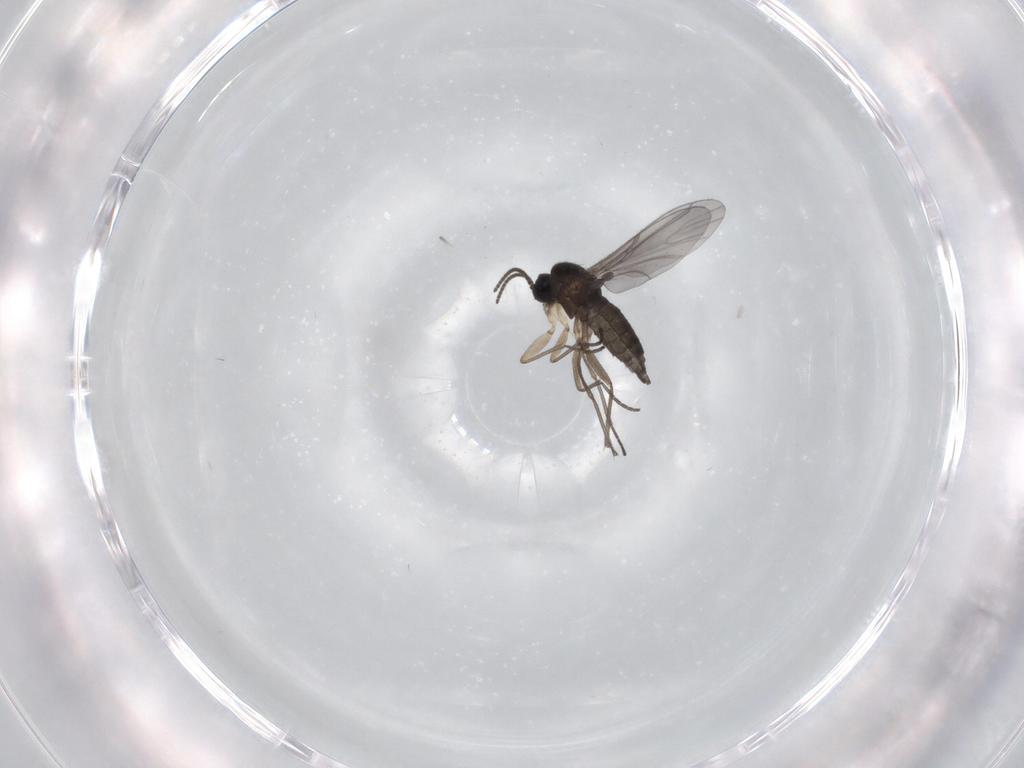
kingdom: Animalia
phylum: Arthropoda
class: Insecta
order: Diptera
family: Sciaridae
